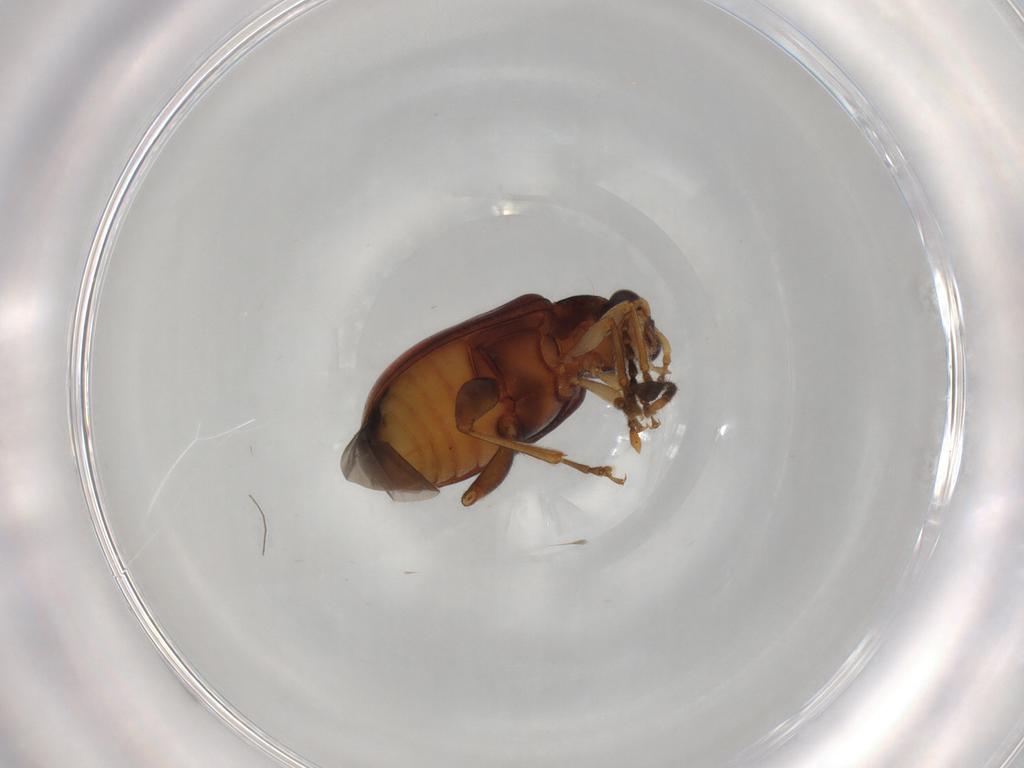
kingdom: Animalia
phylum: Arthropoda
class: Insecta
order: Coleoptera
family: Chrysomelidae
